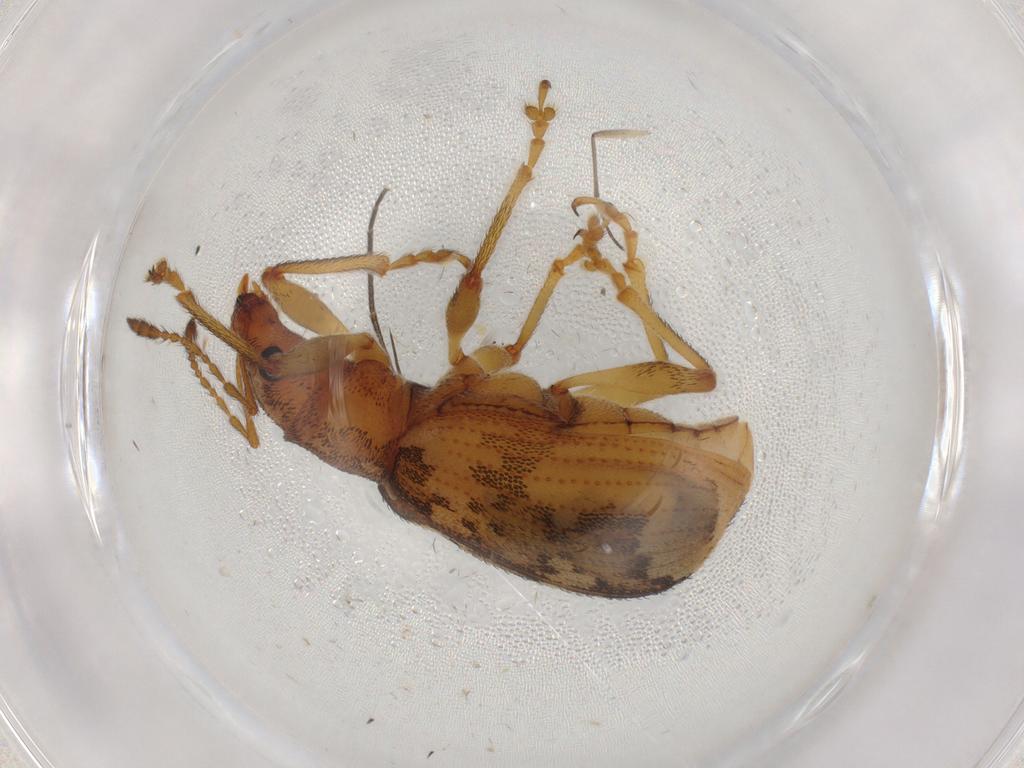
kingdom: Animalia
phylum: Arthropoda
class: Insecta
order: Coleoptera
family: Curculionidae
